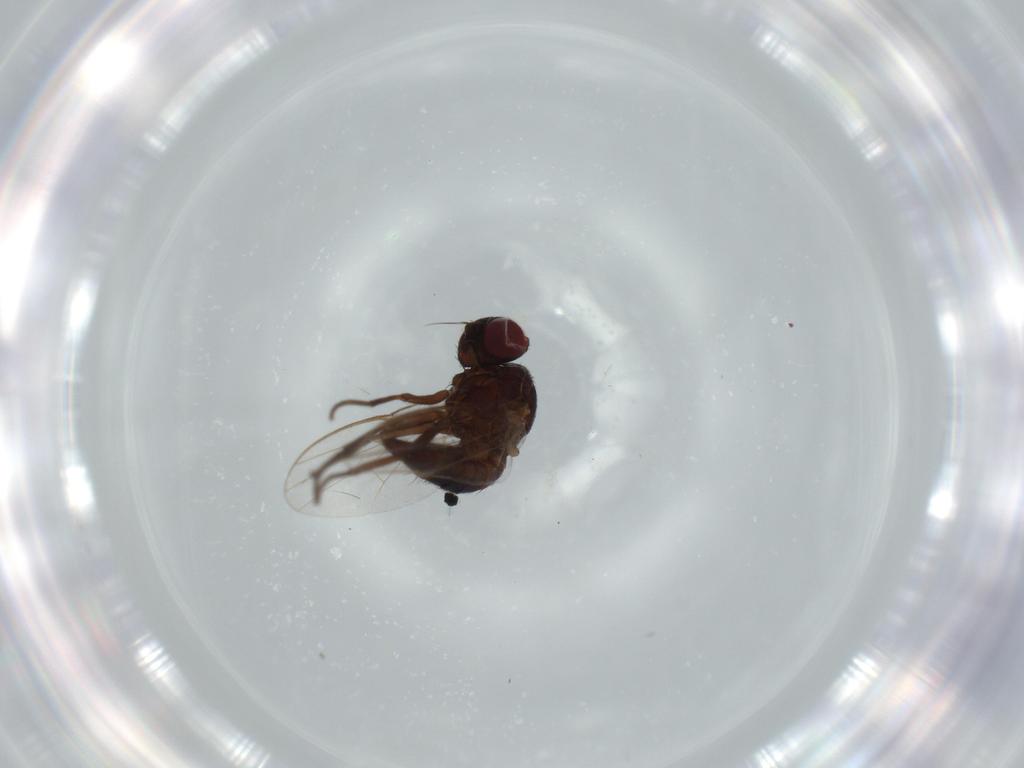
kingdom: Animalia
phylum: Arthropoda
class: Insecta
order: Diptera
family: Agromyzidae
